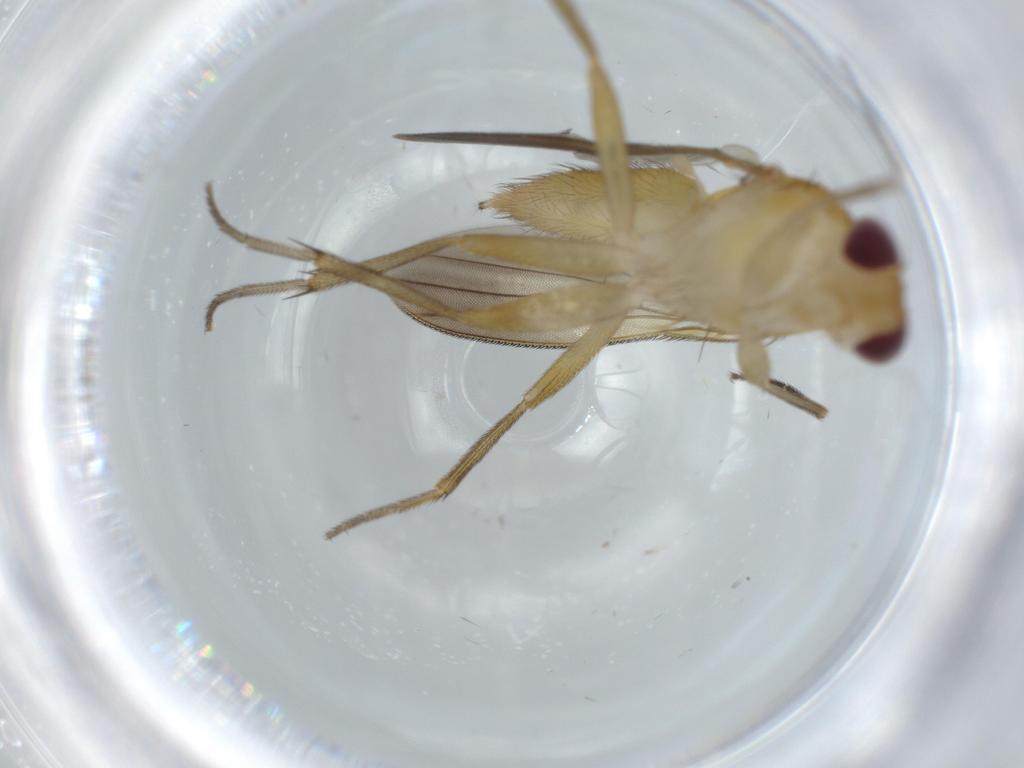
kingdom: Animalia
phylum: Arthropoda
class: Insecta
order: Diptera
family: Clusiidae
